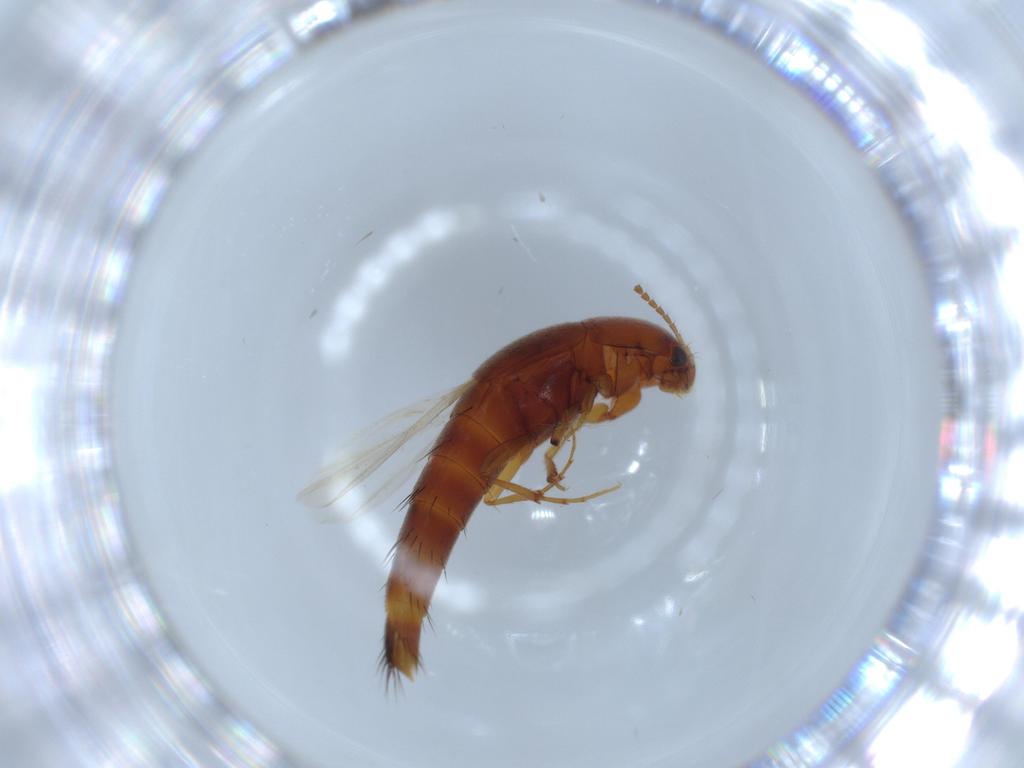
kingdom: Animalia
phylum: Arthropoda
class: Insecta
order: Coleoptera
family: Staphylinidae
